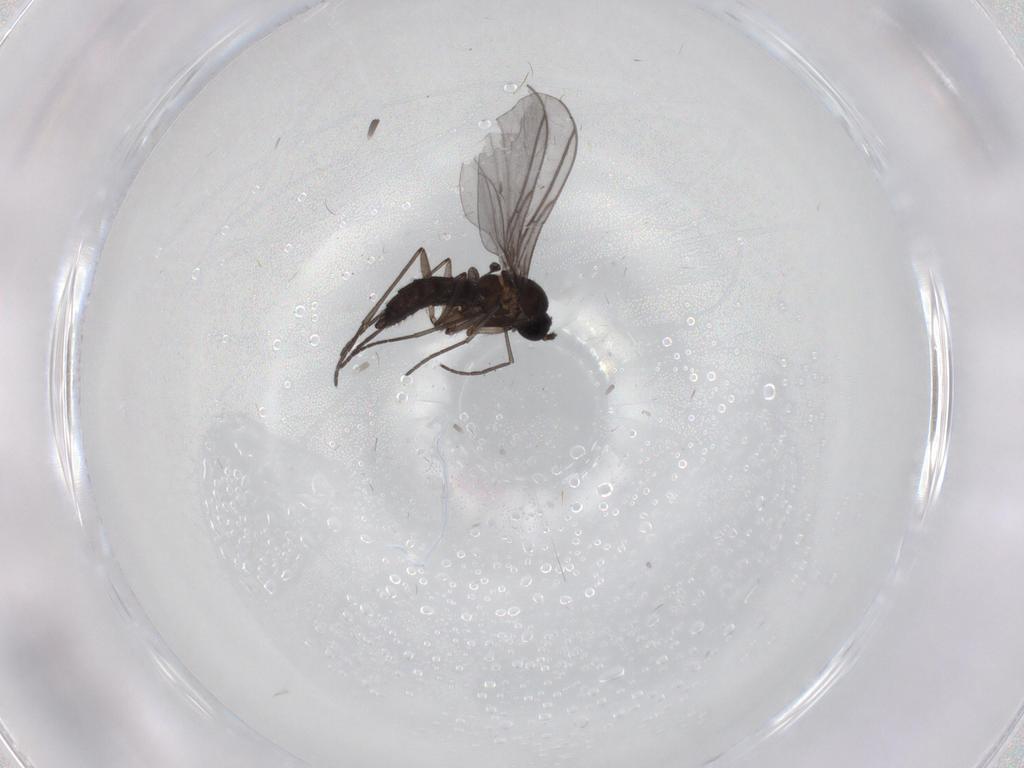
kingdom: Animalia
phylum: Arthropoda
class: Insecta
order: Diptera
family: Sciaridae
